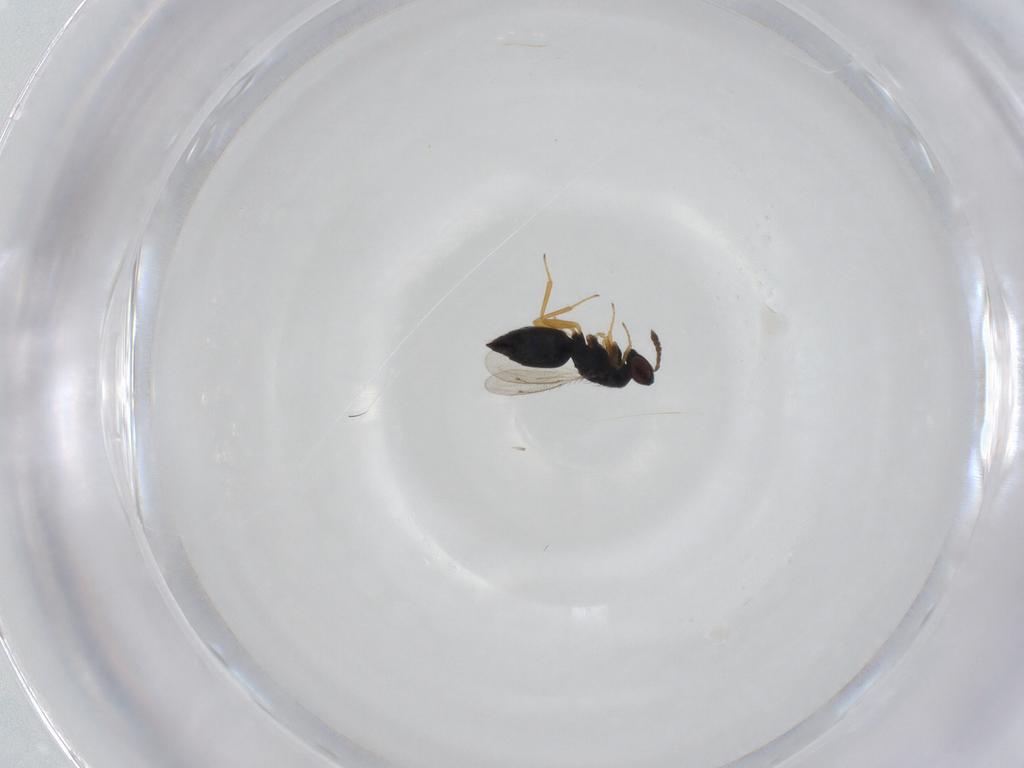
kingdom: Animalia
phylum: Arthropoda
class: Insecta
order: Hymenoptera
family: Eulophidae
